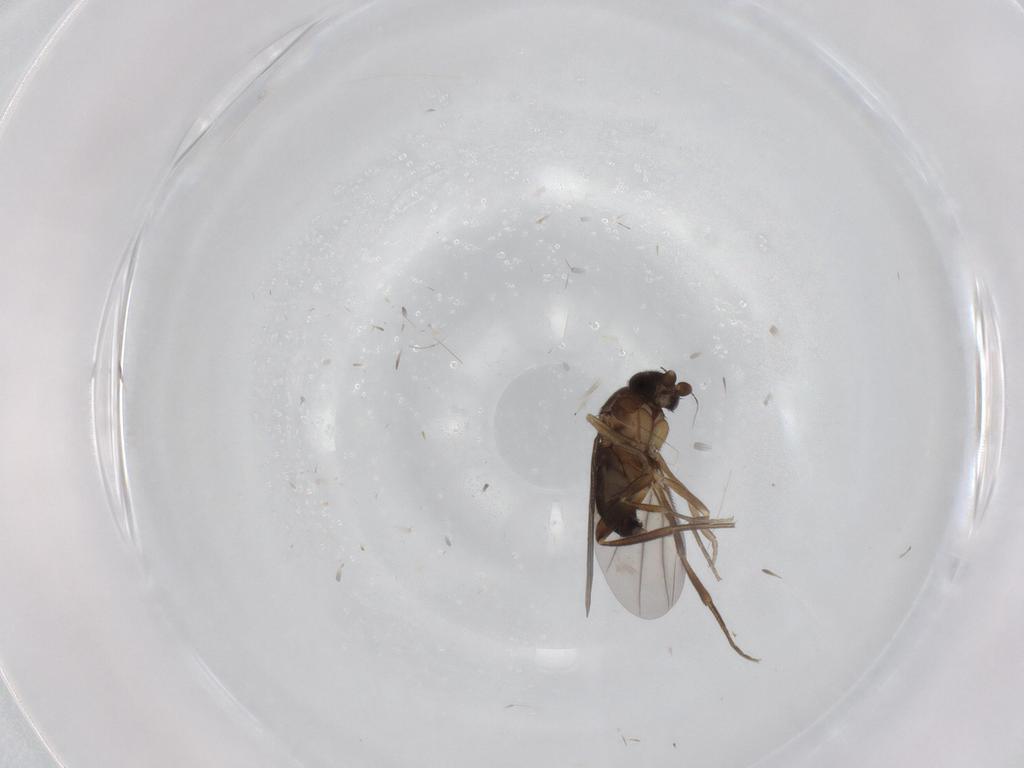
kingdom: Animalia
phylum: Arthropoda
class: Insecta
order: Diptera
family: Phoridae
